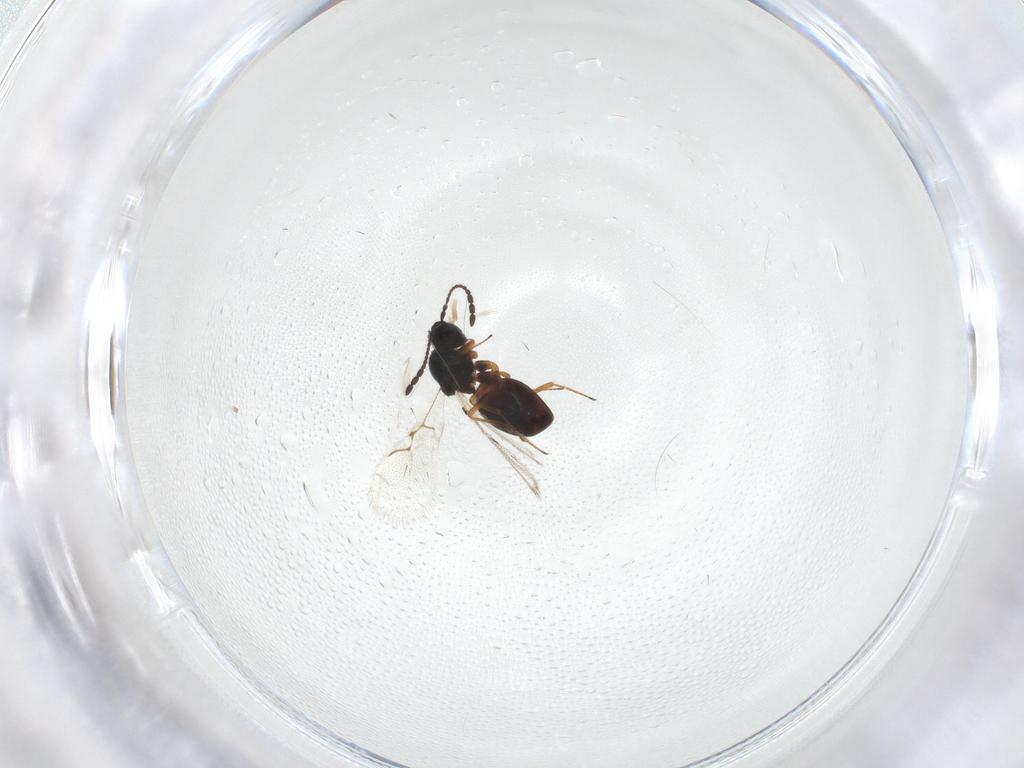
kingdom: Animalia
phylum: Arthropoda
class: Insecta
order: Hymenoptera
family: Figitidae
